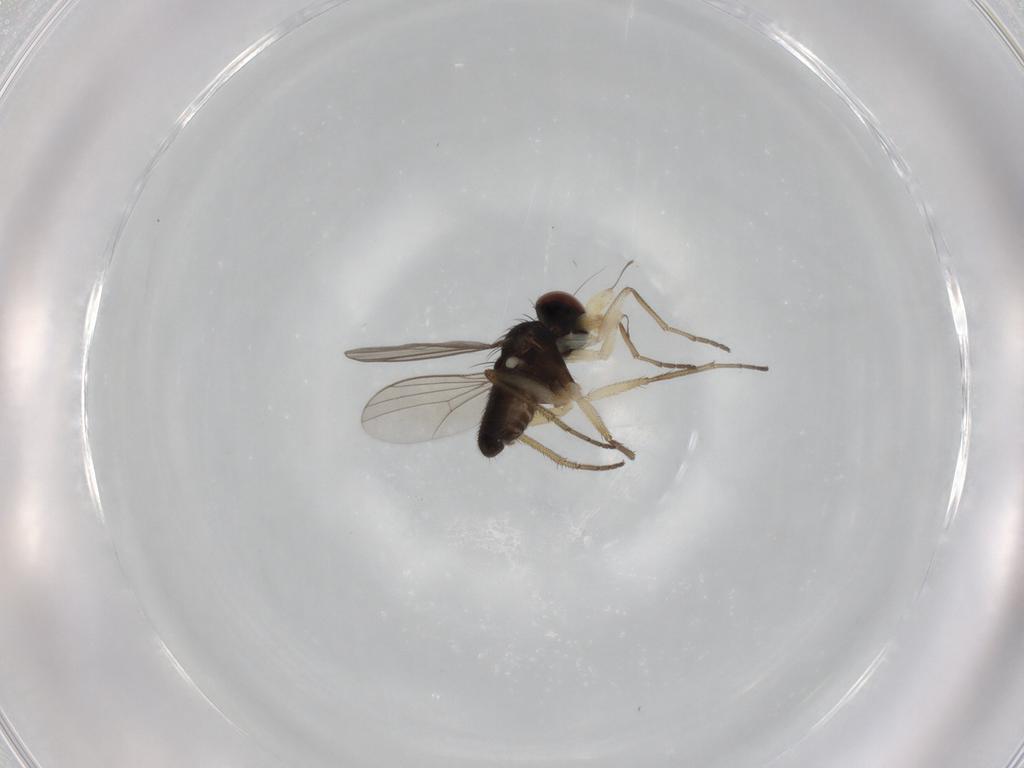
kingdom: Animalia
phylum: Arthropoda
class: Insecta
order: Diptera
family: Dolichopodidae
